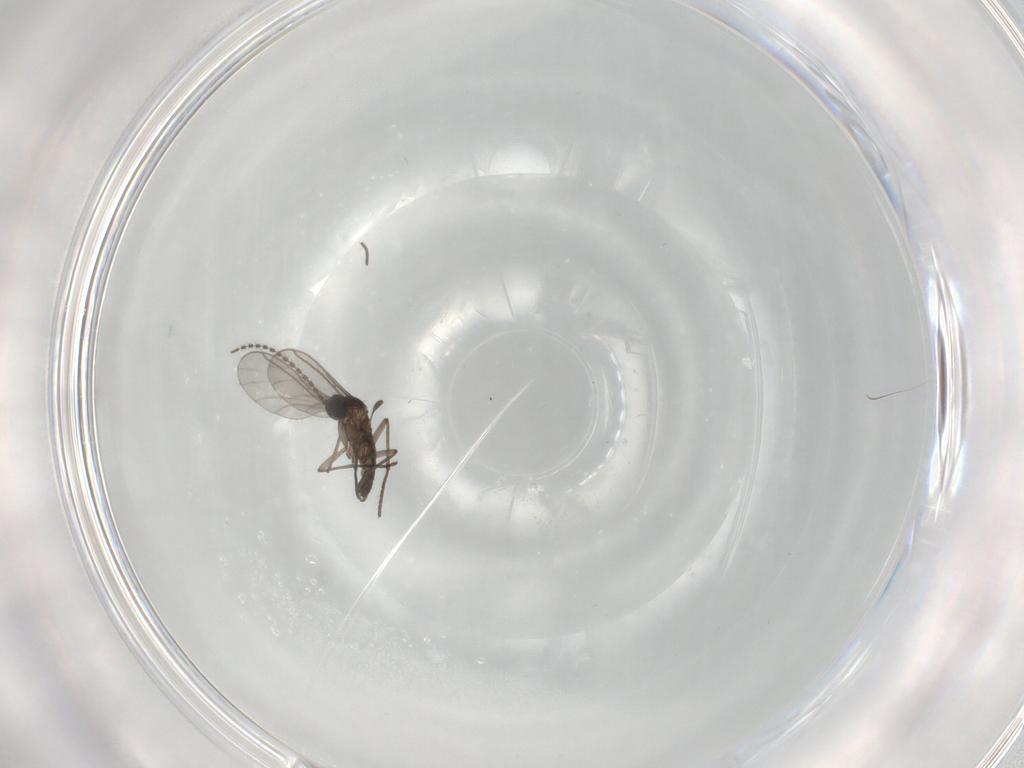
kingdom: Animalia
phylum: Arthropoda
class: Insecta
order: Diptera
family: Cecidomyiidae
